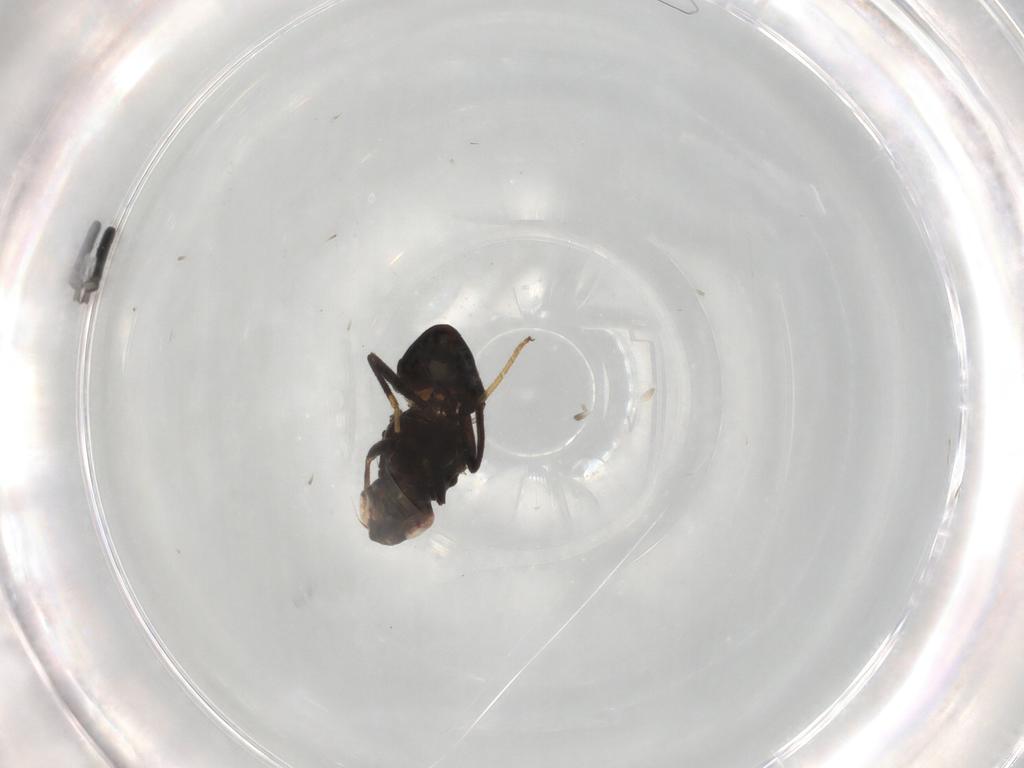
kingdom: Animalia
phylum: Arthropoda
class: Insecta
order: Diptera
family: Tephritidae
